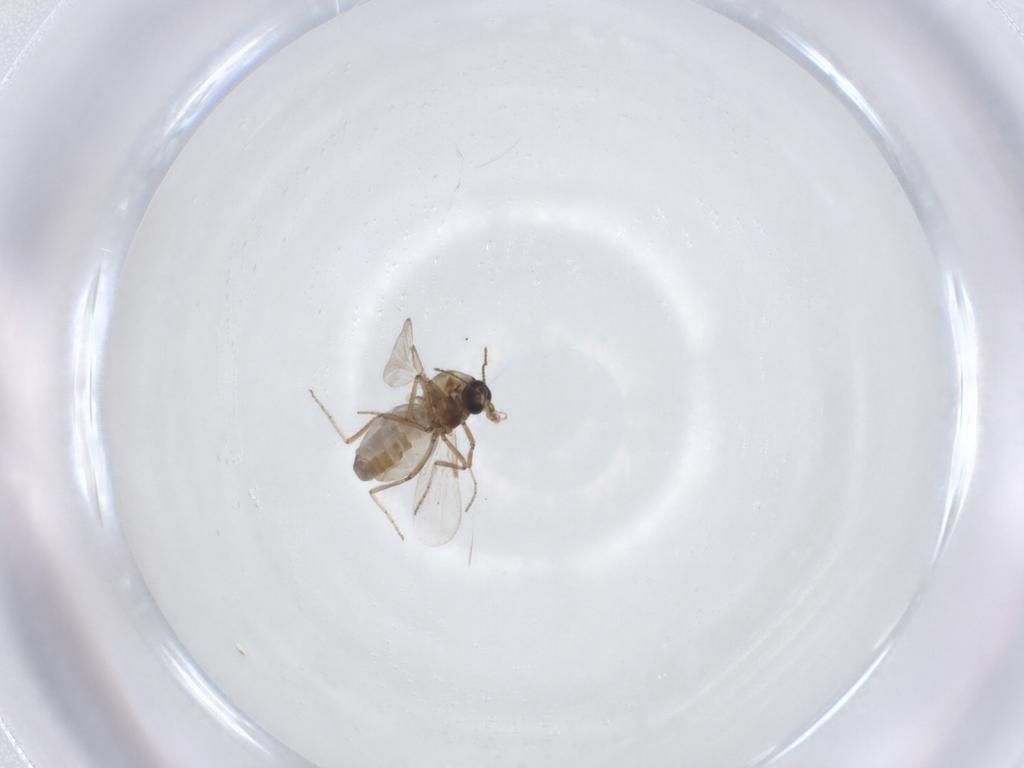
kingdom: Animalia
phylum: Arthropoda
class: Insecta
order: Diptera
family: Ceratopogonidae
